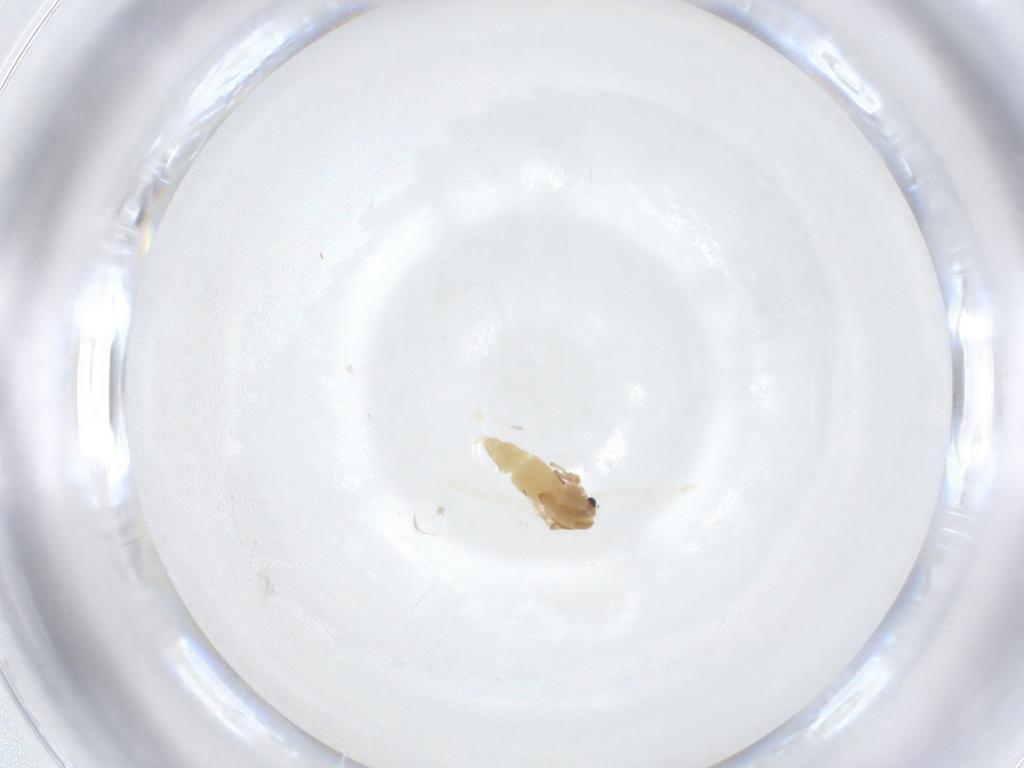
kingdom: Animalia
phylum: Arthropoda
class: Insecta
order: Diptera
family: Chironomidae
